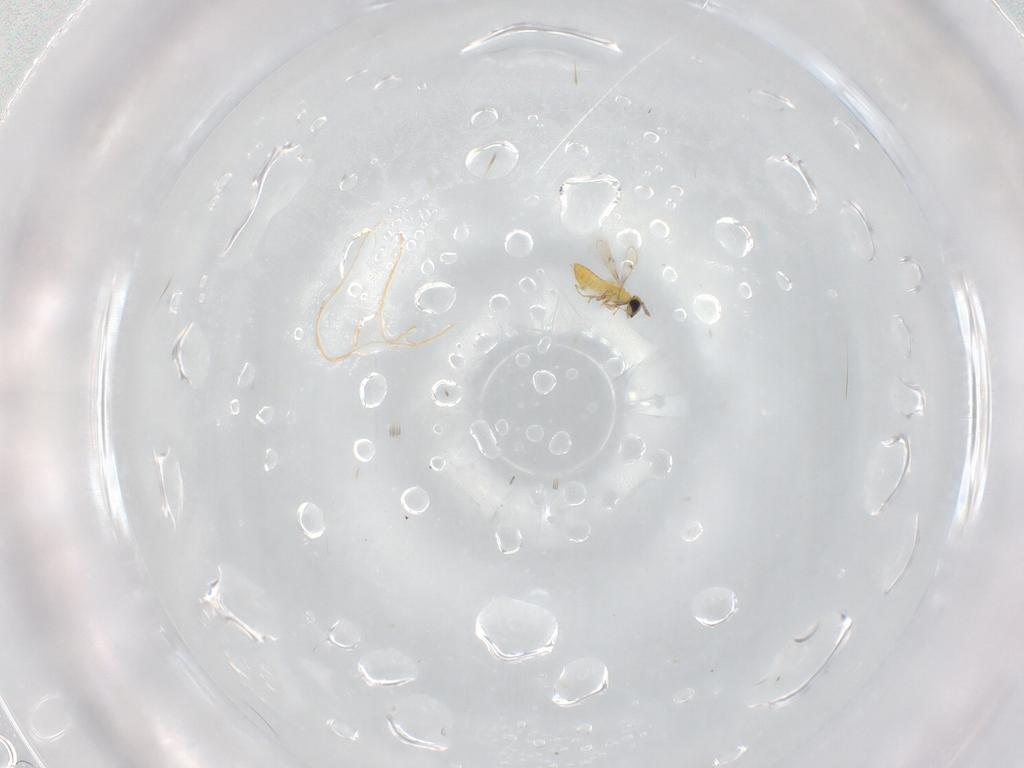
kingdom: Animalia
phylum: Arthropoda
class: Insecta
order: Hymenoptera
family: Trichogrammatidae
